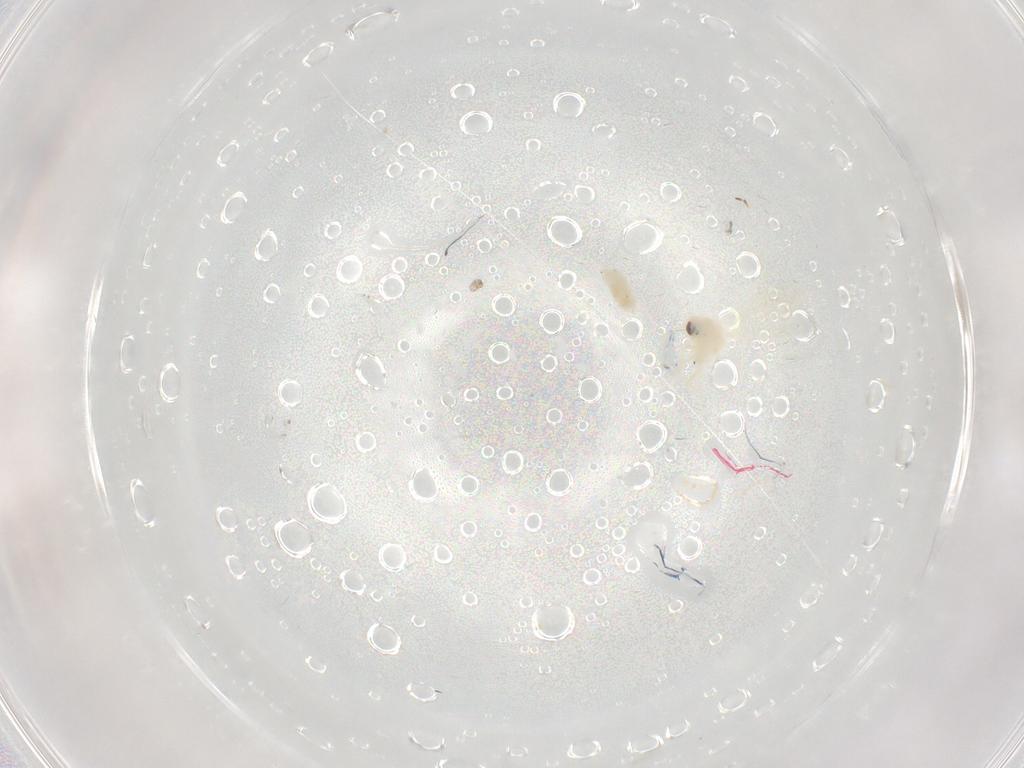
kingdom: Animalia
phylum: Arthropoda
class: Insecta
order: Hemiptera
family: Aleyrodidae
